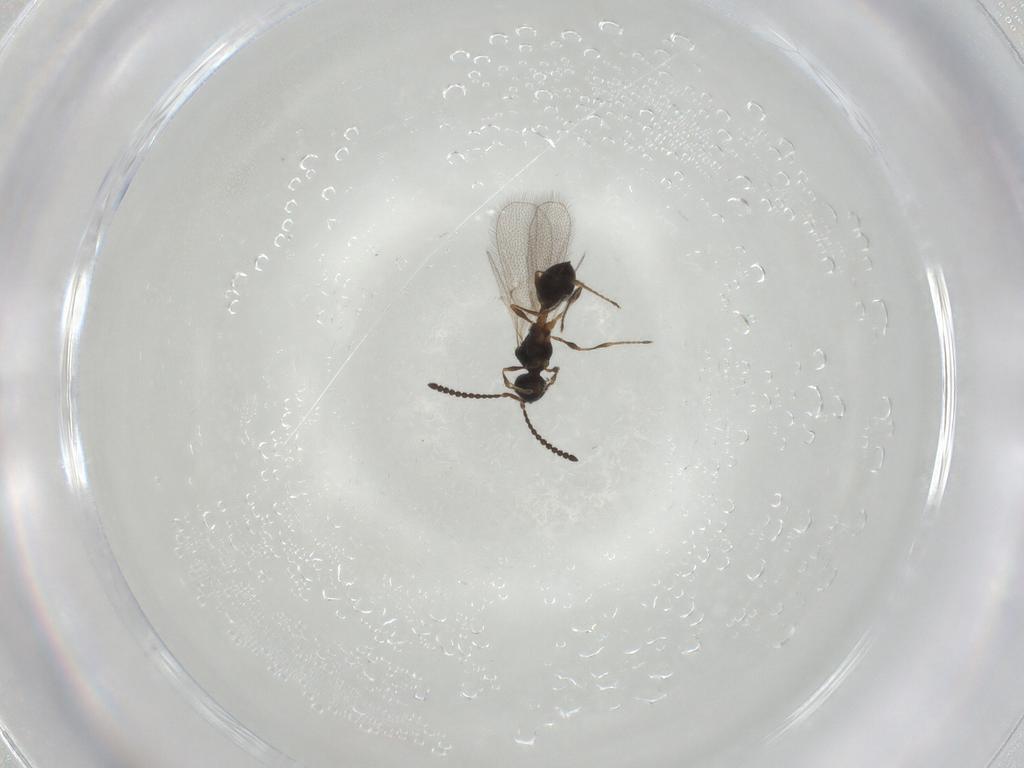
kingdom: Animalia
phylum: Arthropoda
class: Insecta
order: Hymenoptera
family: Diapriidae
